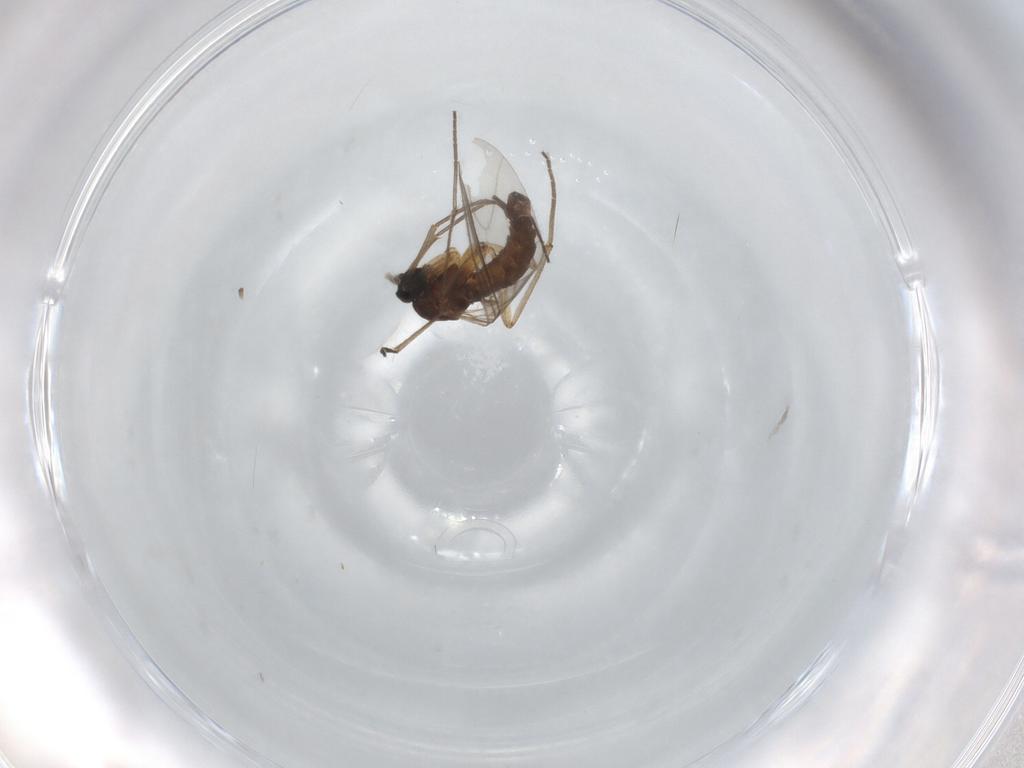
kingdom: Animalia
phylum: Arthropoda
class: Insecta
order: Diptera
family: Sciaridae
